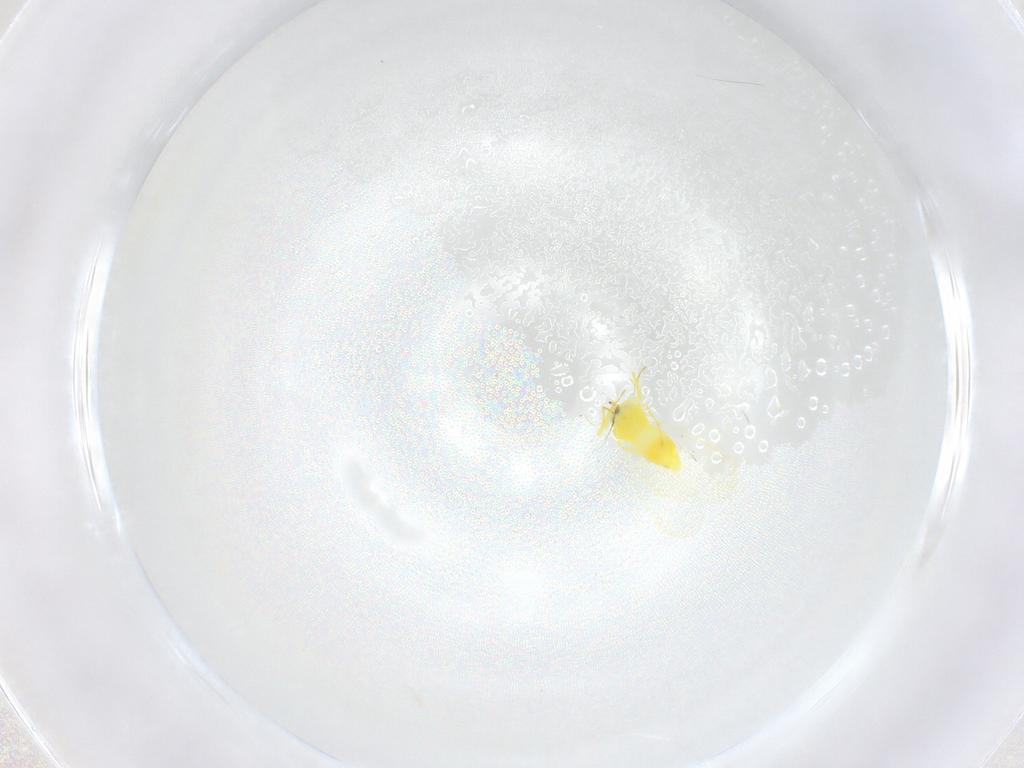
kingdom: Animalia
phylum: Arthropoda
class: Insecta
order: Hemiptera
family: Aleyrodidae
